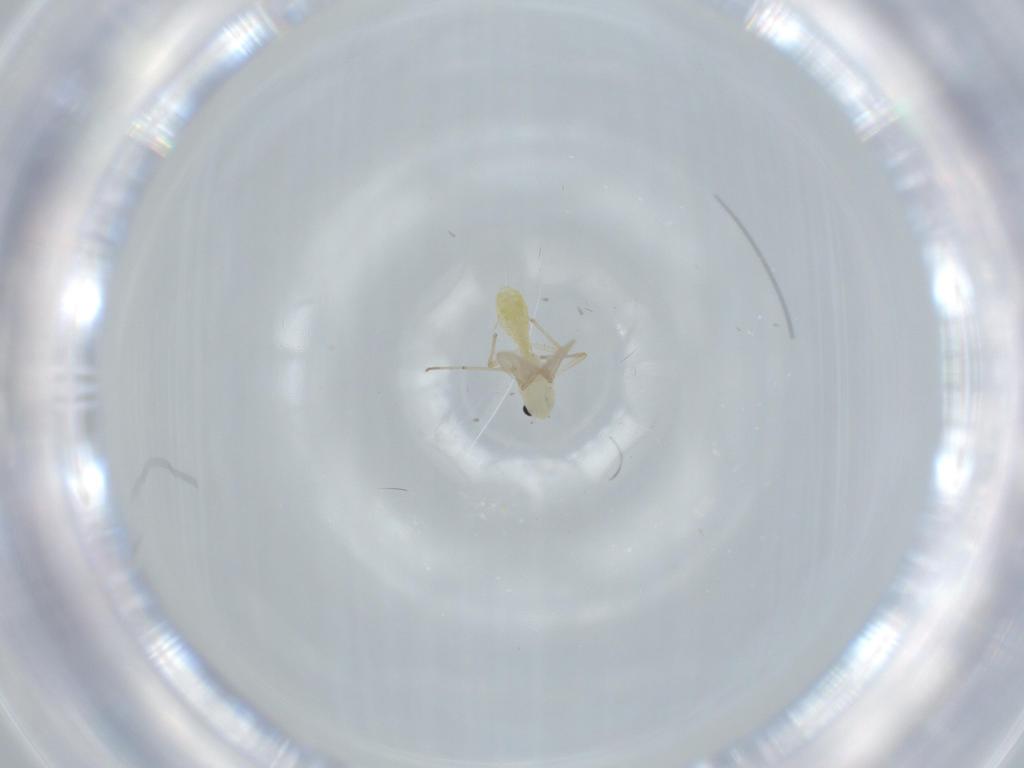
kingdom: Animalia
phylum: Arthropoda
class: Insecta
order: Diptera
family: Asilidae
